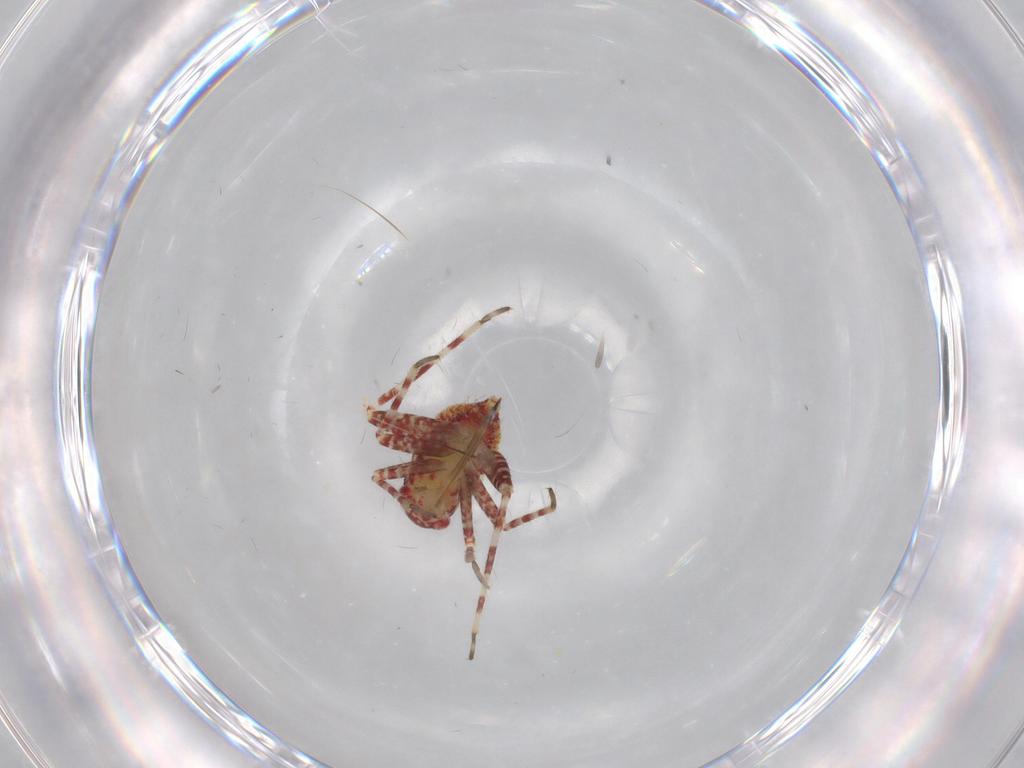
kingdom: Animalia
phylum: Arthropoda
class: Insecta
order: Hemiptera
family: Miridae
